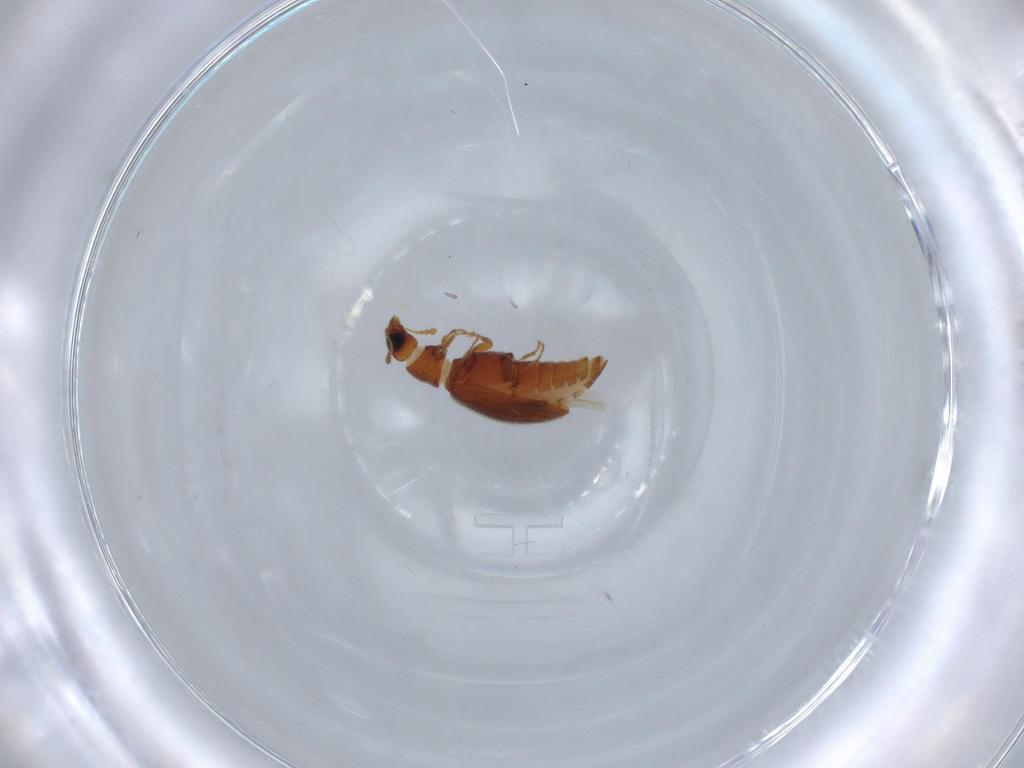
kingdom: Animalia
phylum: Arthropoda
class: Insecta
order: Coleoptera
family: Latridiidae
